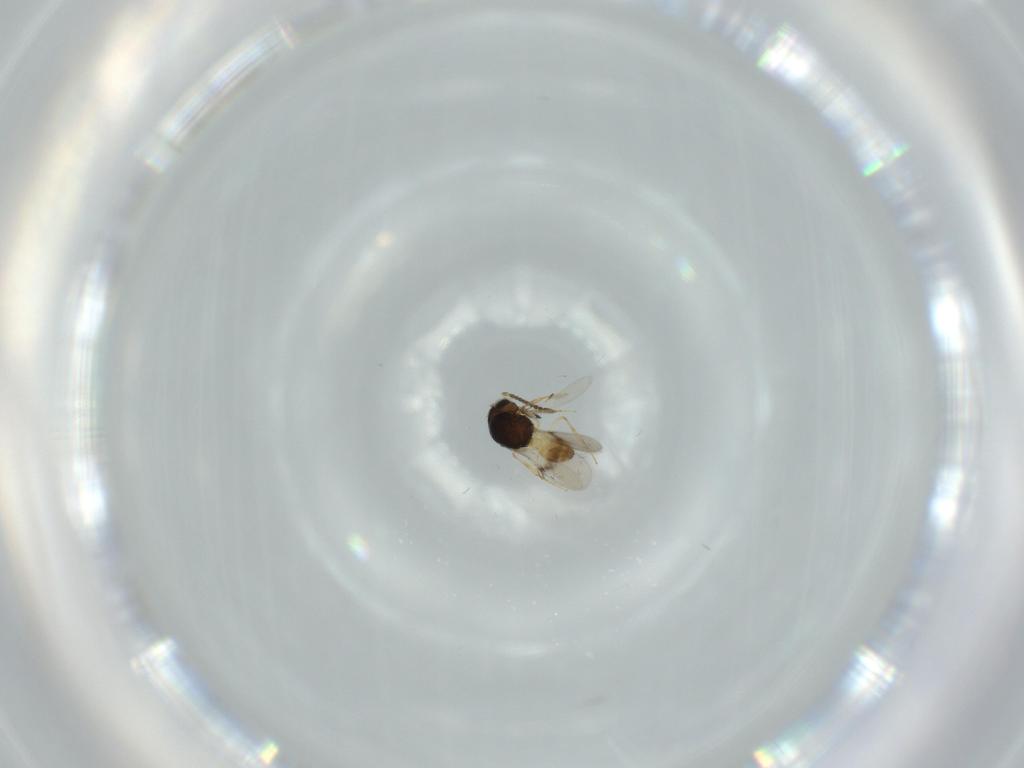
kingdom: Animalia
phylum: Arthropoda
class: Insecta
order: Hymenoptera
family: Scelionidae
